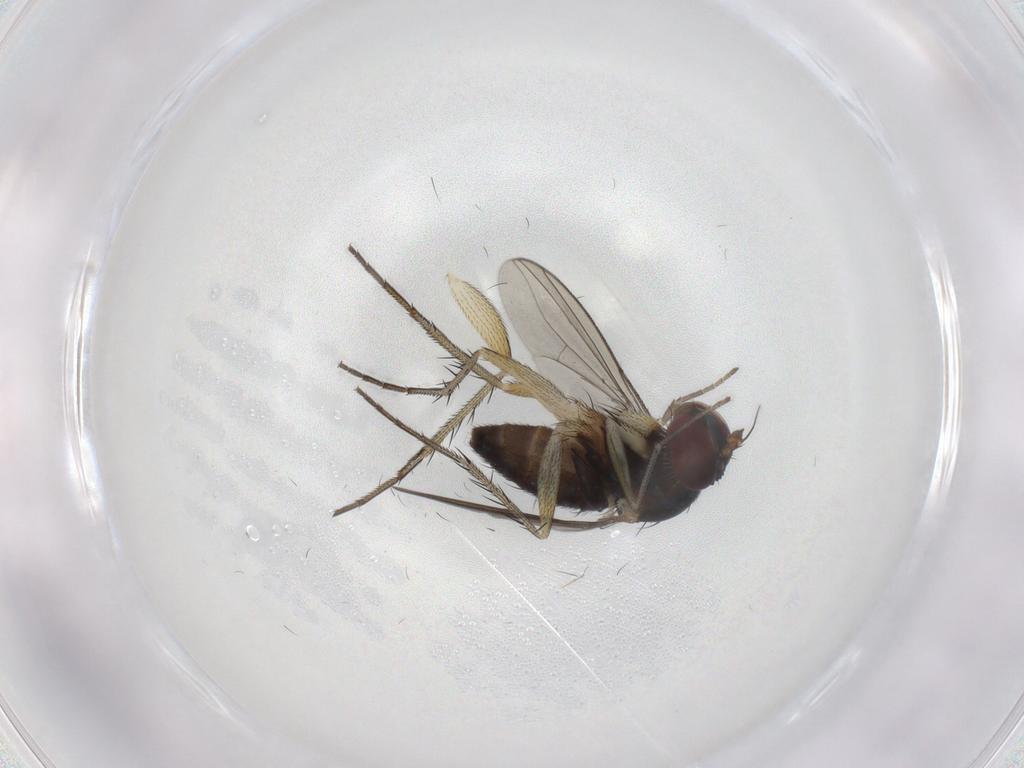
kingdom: Animalia
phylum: Arthropoda
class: Insecta
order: Diptera
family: Dolichopodidae
